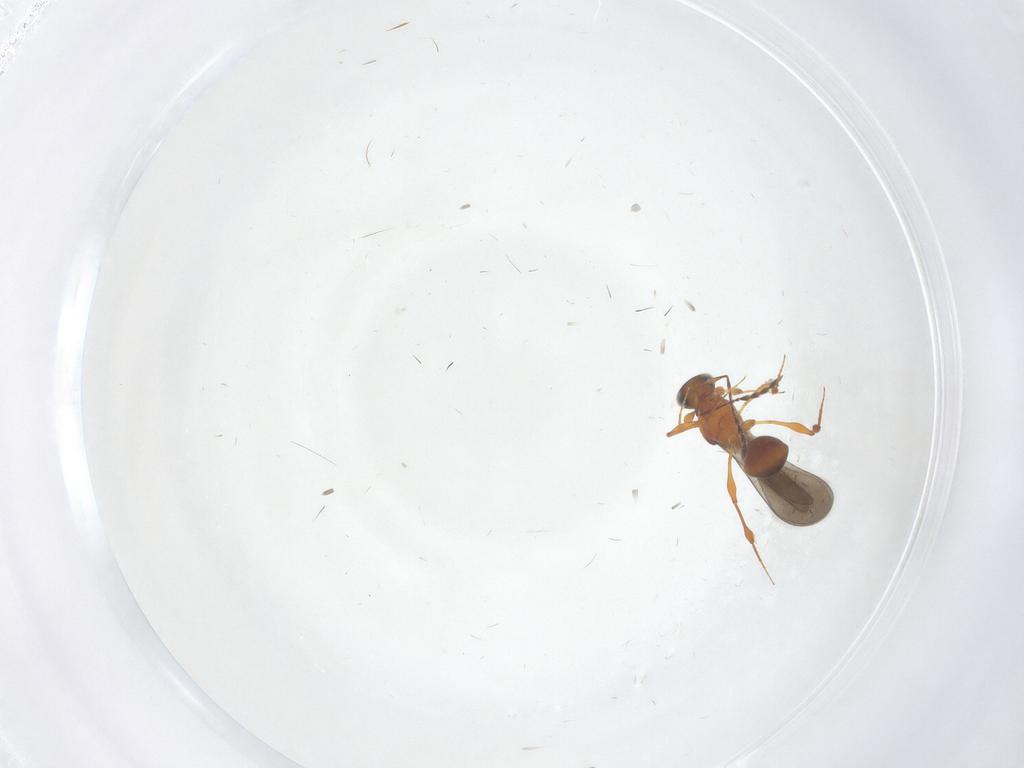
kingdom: Animalia
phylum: Arthropoda
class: Insecta
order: Hymenoptera
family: Platygastridae
